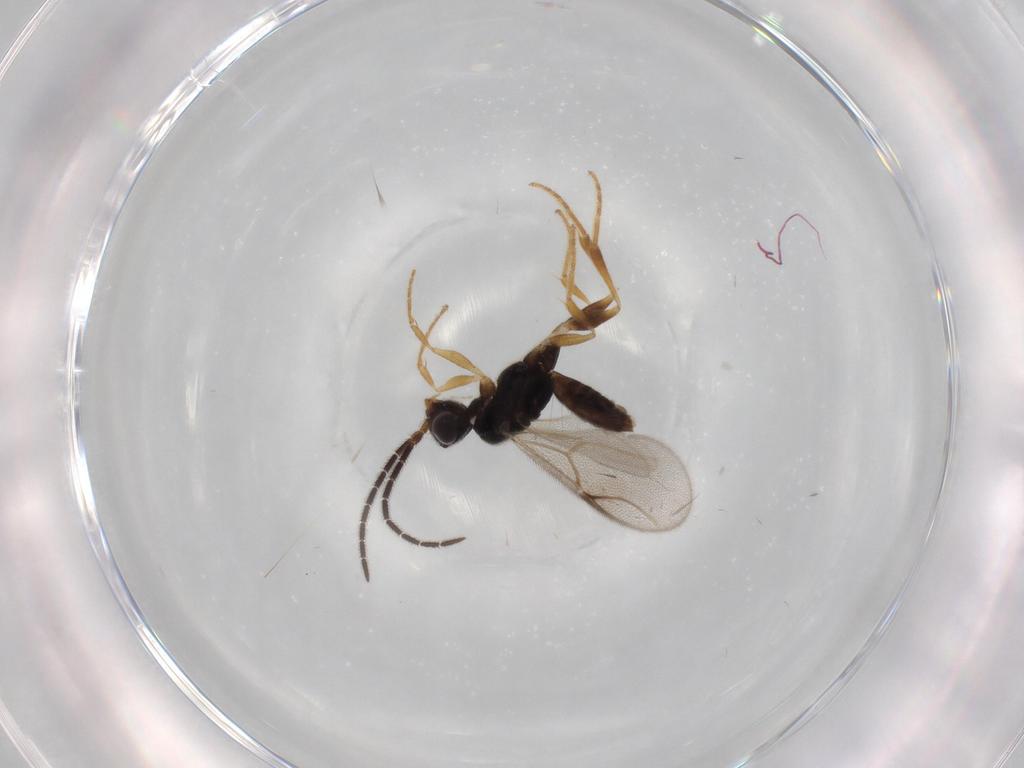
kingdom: Animalia
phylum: Arthropoda
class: Insecta
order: Hymenoptera
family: Dryinidae
